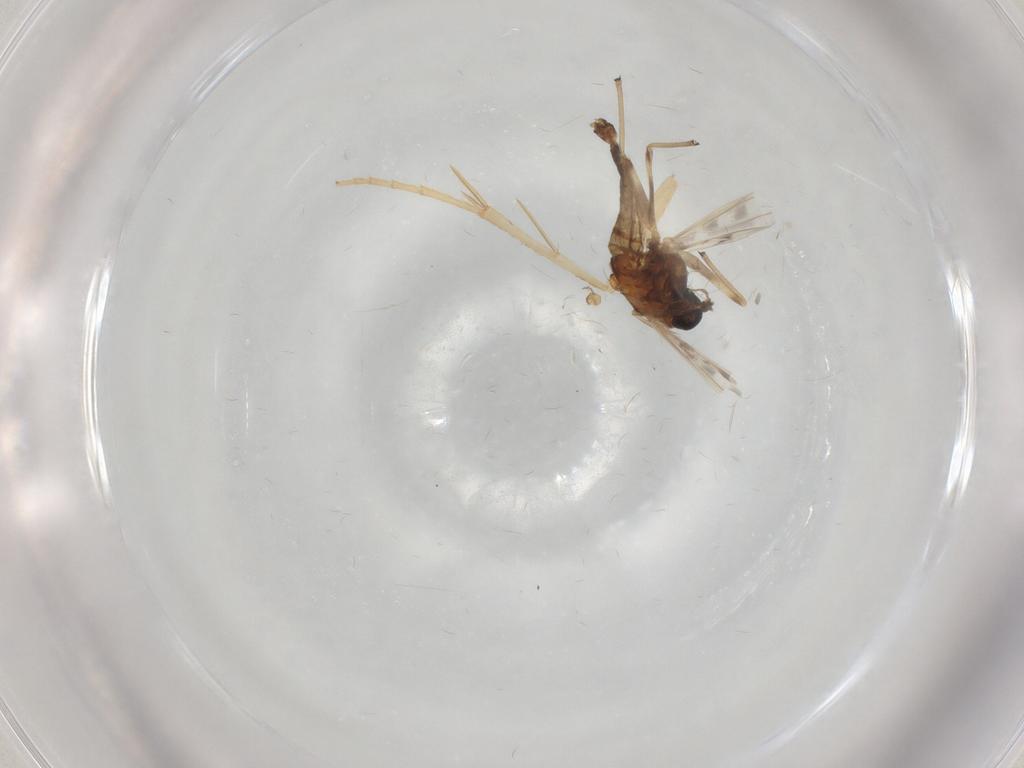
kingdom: Animalia
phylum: Arthropoda
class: Insecta
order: Diptera
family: Chironomidae
